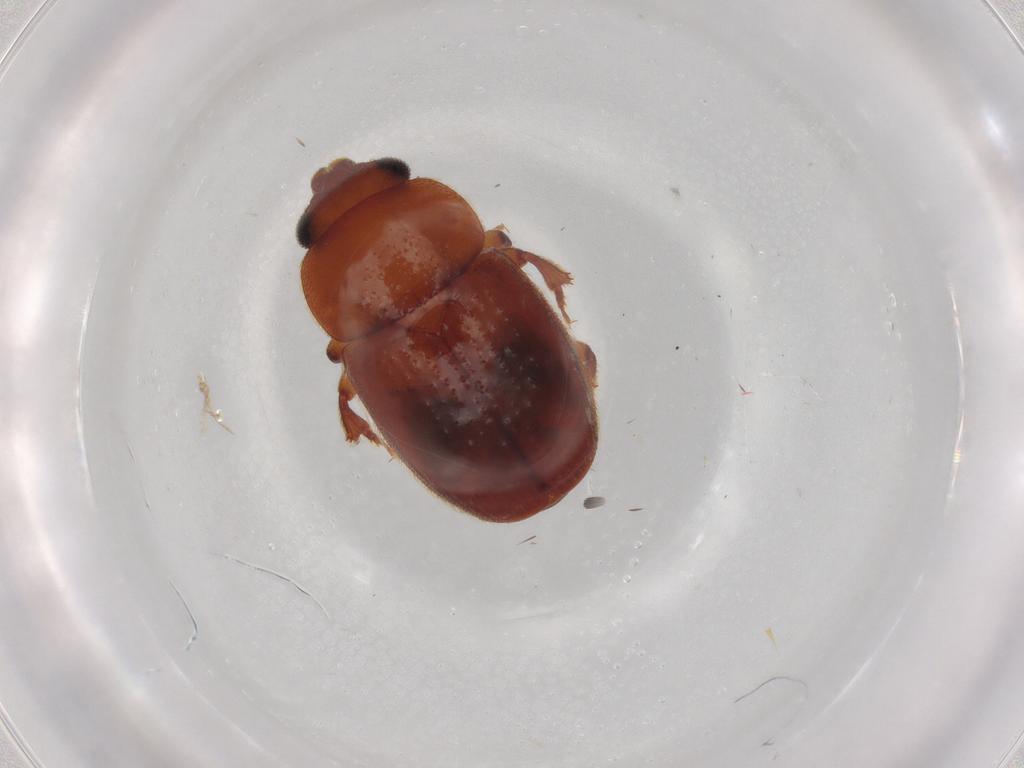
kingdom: Animalia
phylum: Arthropoda
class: Insecta
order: Coleoptera
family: Nitidulidae
